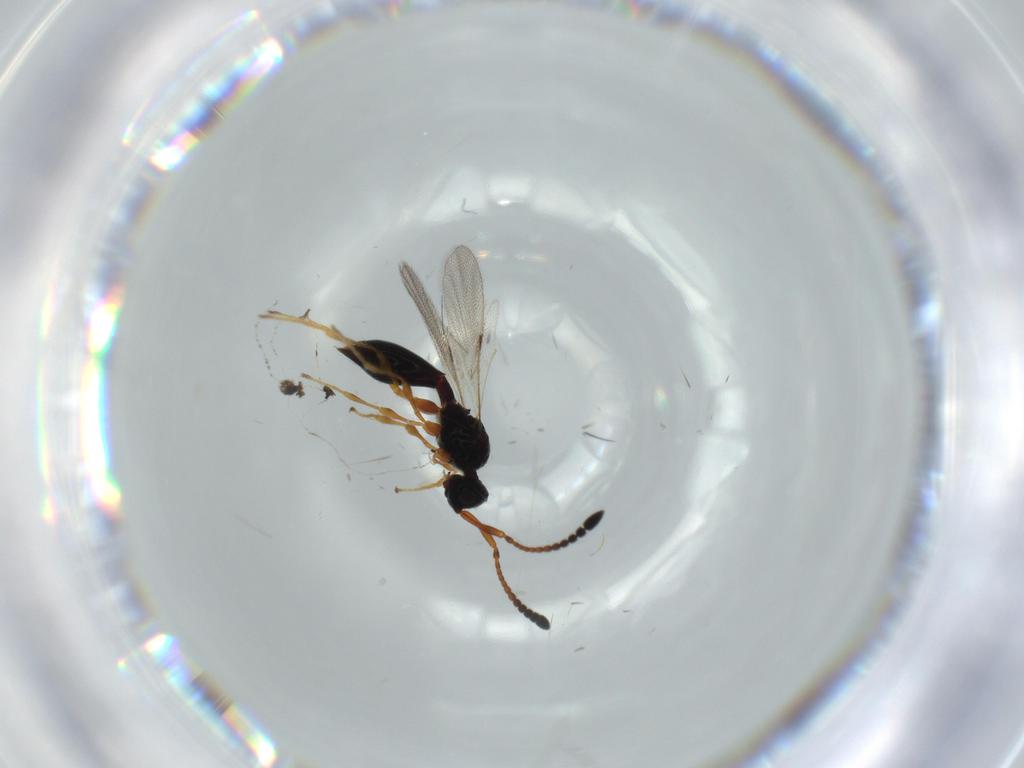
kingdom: Animalia
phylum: Arthropoda
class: Insecta
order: Hymenoptera
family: Diapriidae
